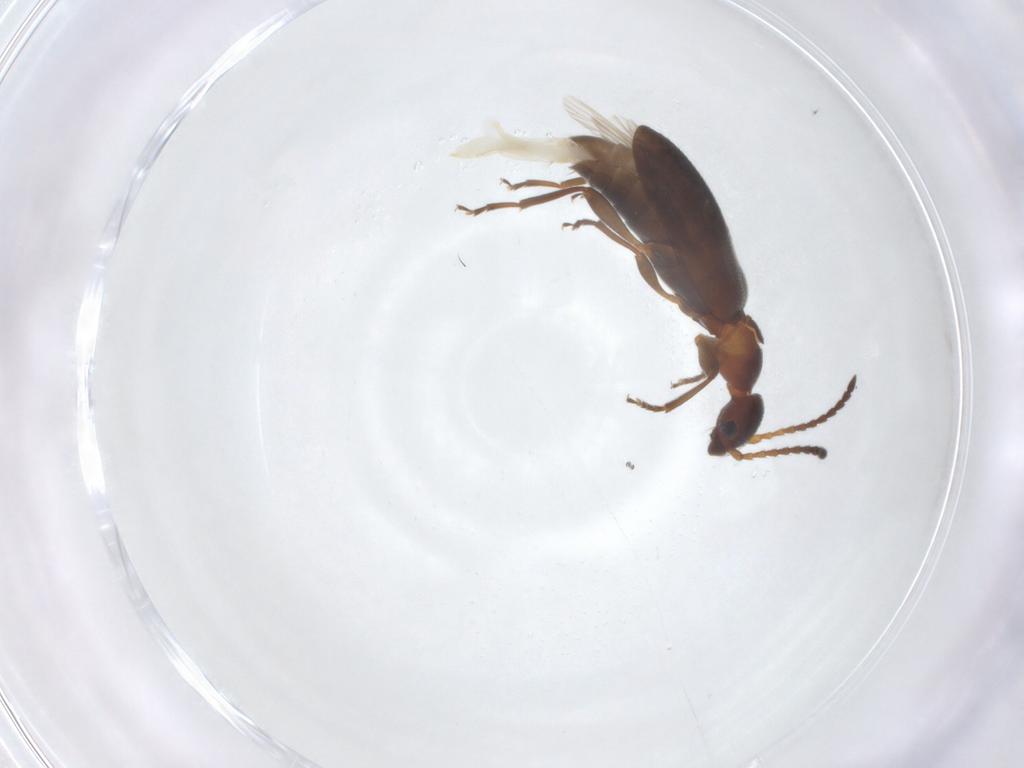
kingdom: Animalia
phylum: Arthropoda
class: Insecta
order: Coleoptera
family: Anthicidae
